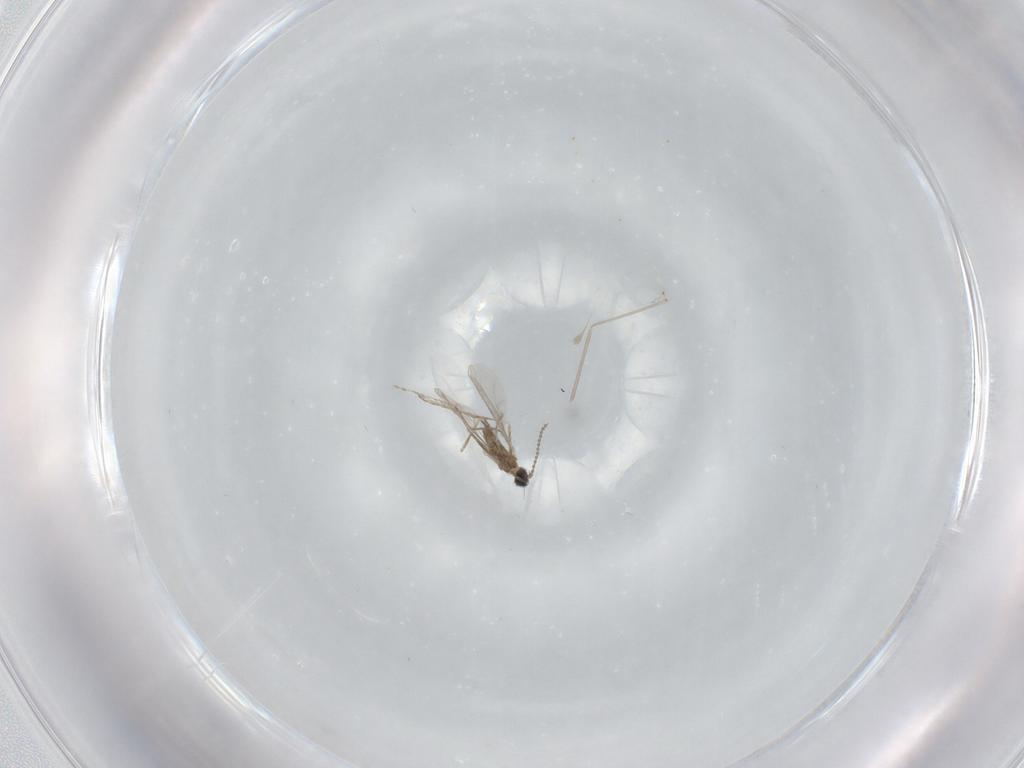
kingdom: Animalia
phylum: Arthropoda
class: Insecta
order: Diptera
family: Cecidomyiidae
